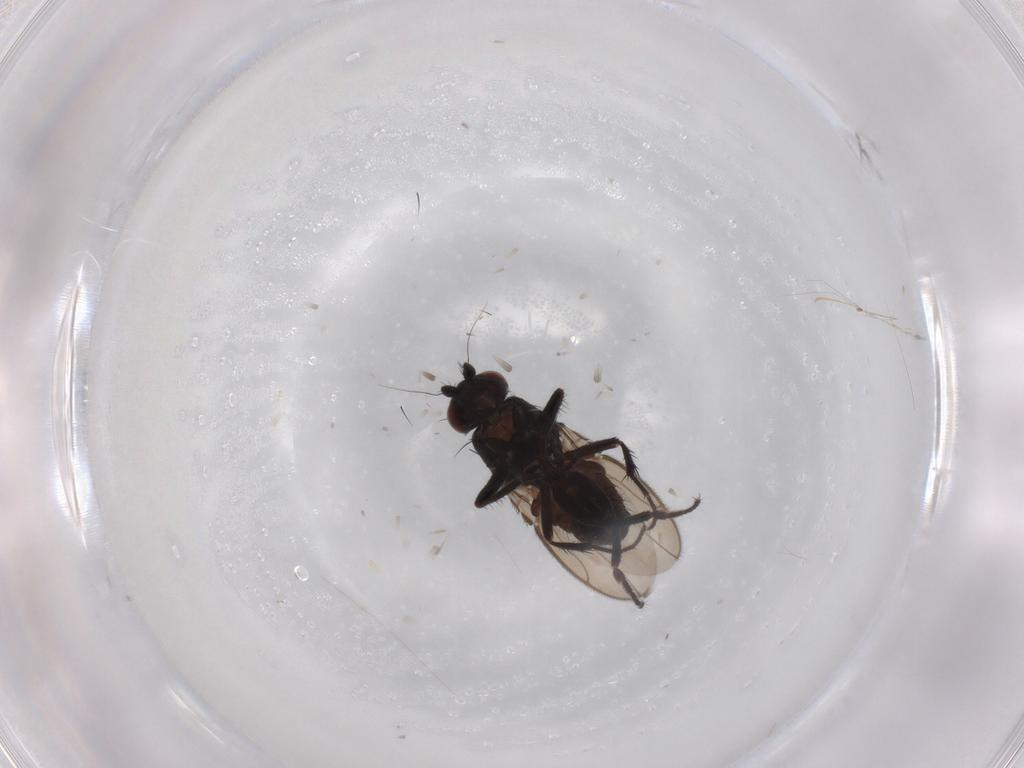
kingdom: Animalia
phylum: Arthropoda
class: Insecta
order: Diptera
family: Sphaeroceridae
